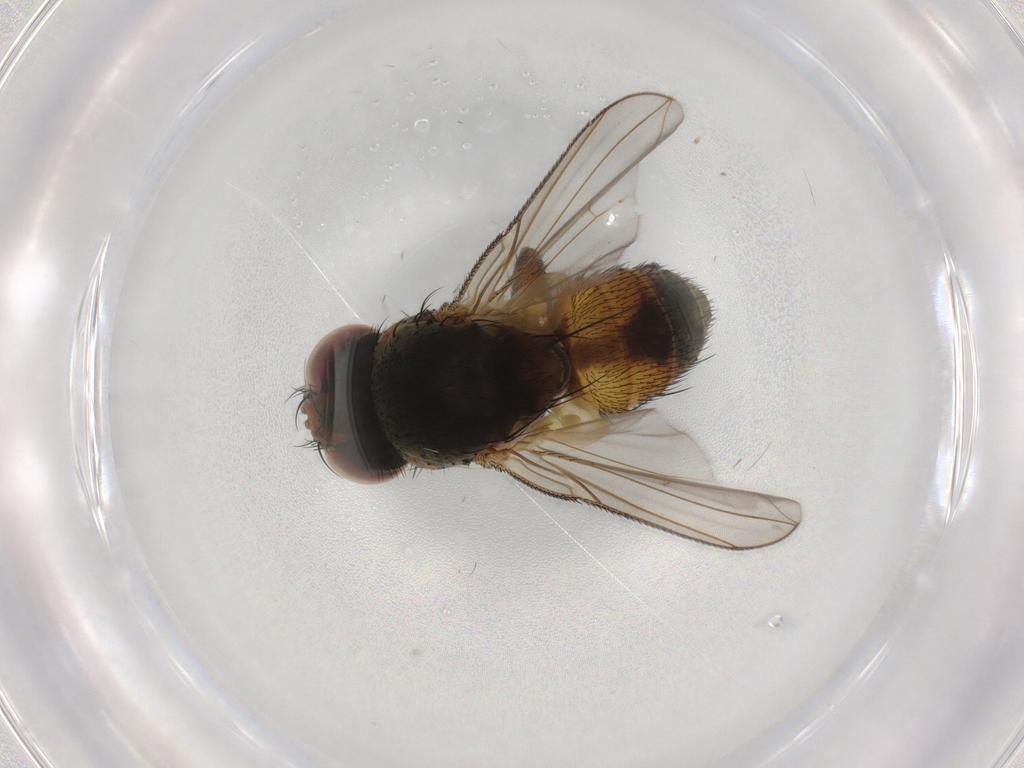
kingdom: Animalia
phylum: Arthropoda
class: Insecta
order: Diptera
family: Tachinidae
